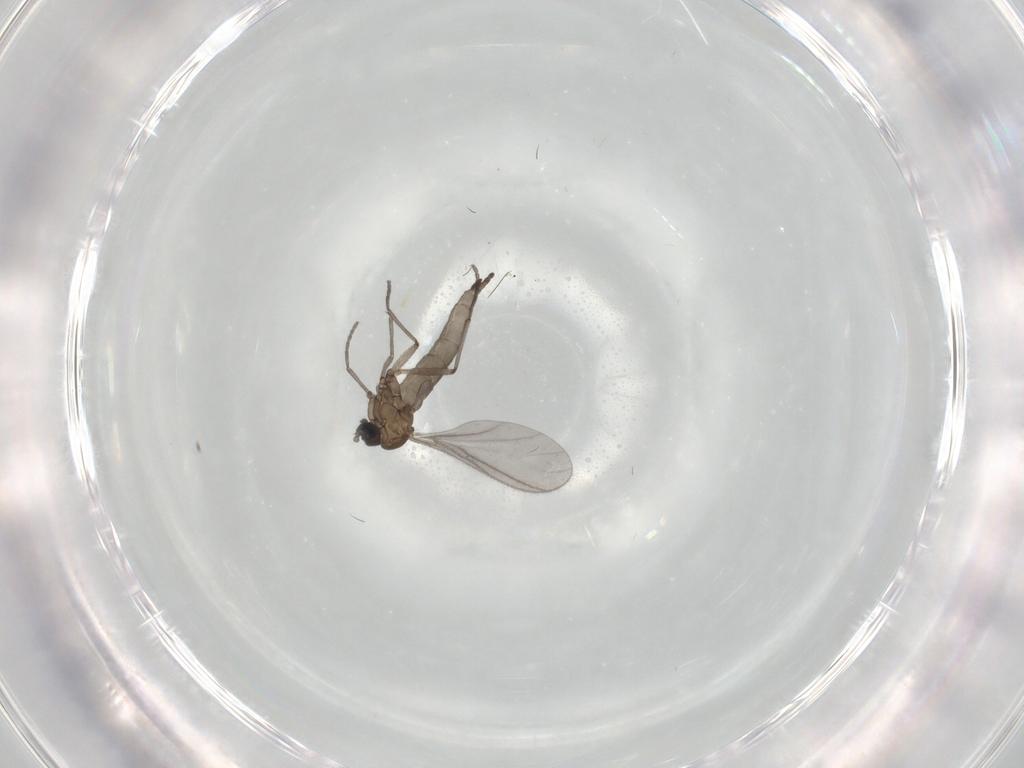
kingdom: Animalia
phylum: Arthropoda
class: Insecta
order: Diptera
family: Sciaridae
